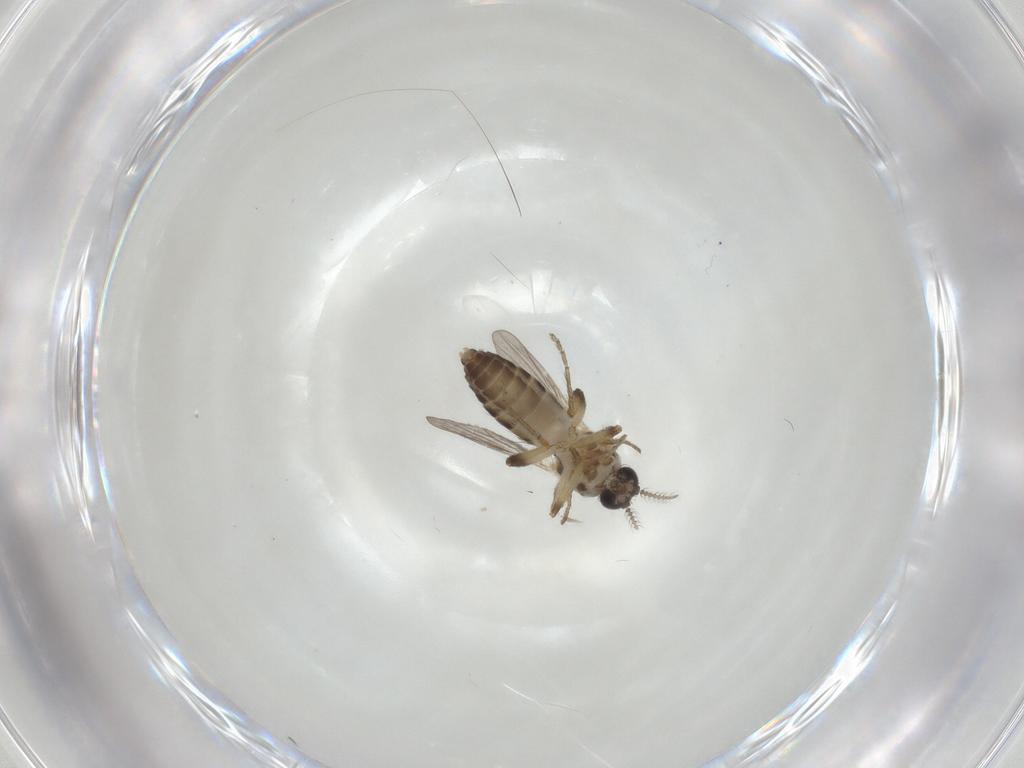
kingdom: Animalia
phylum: Arthropoda
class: Insecta
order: Diptera
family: Ceratopogonidae
